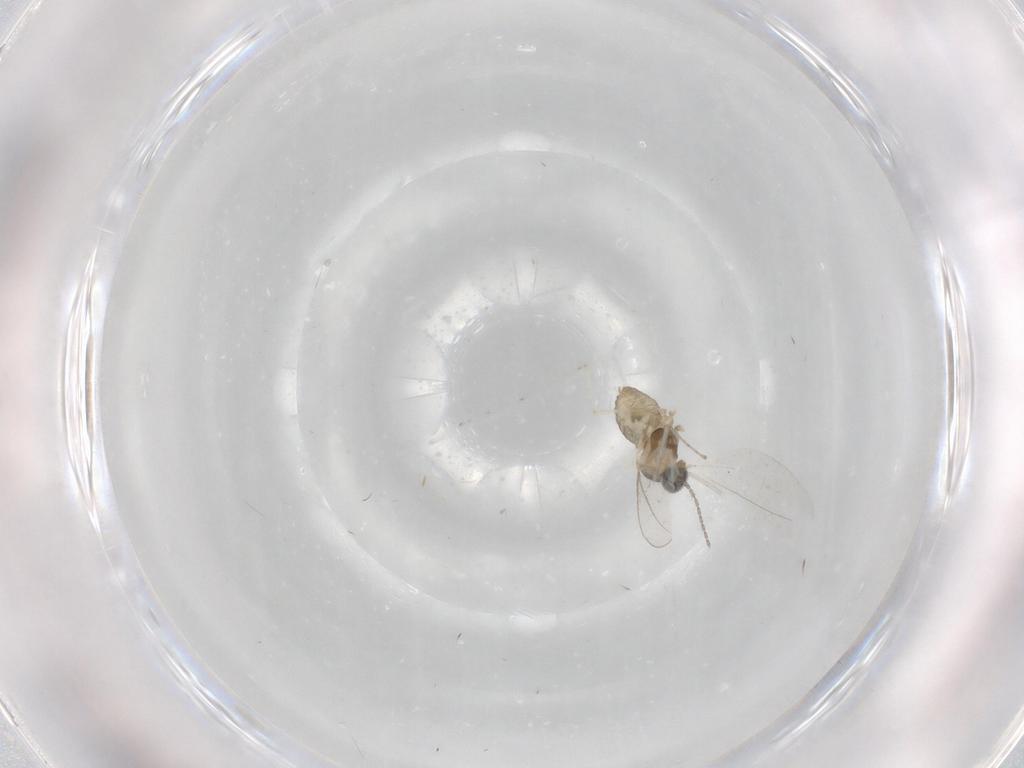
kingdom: Animalia
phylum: Arthropoda
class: Insecta
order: Diptera
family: Cecidomyiidae
